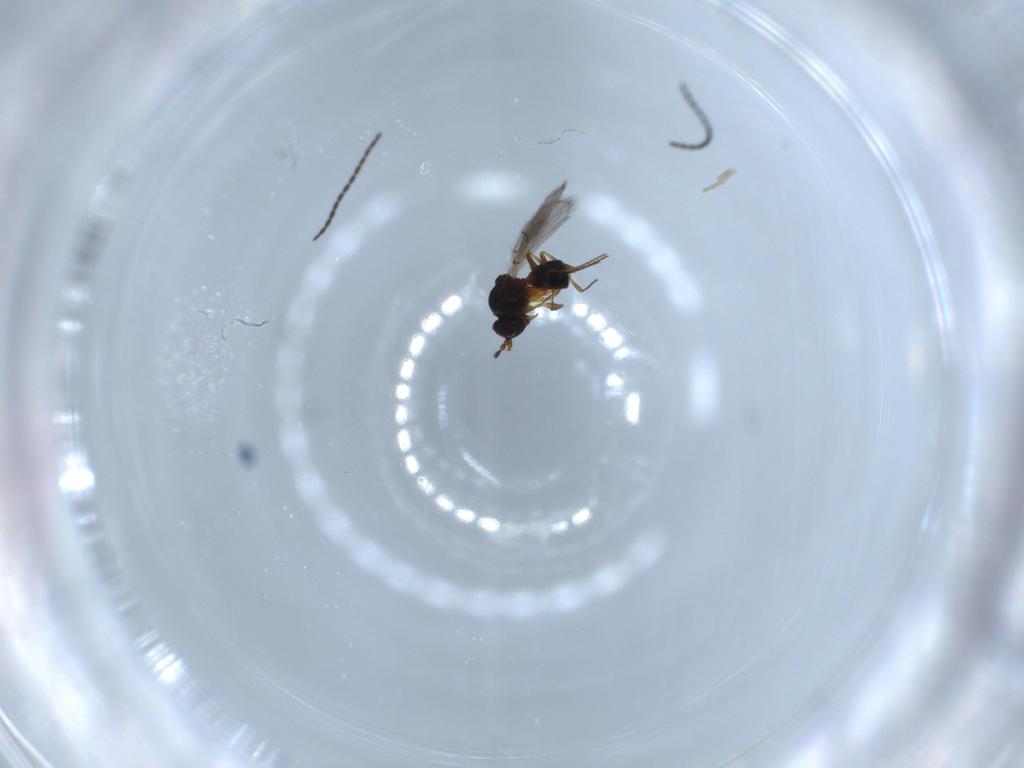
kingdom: Animalia
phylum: Arthropoda
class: Insecta
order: Hymenoptera
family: Figitidae
